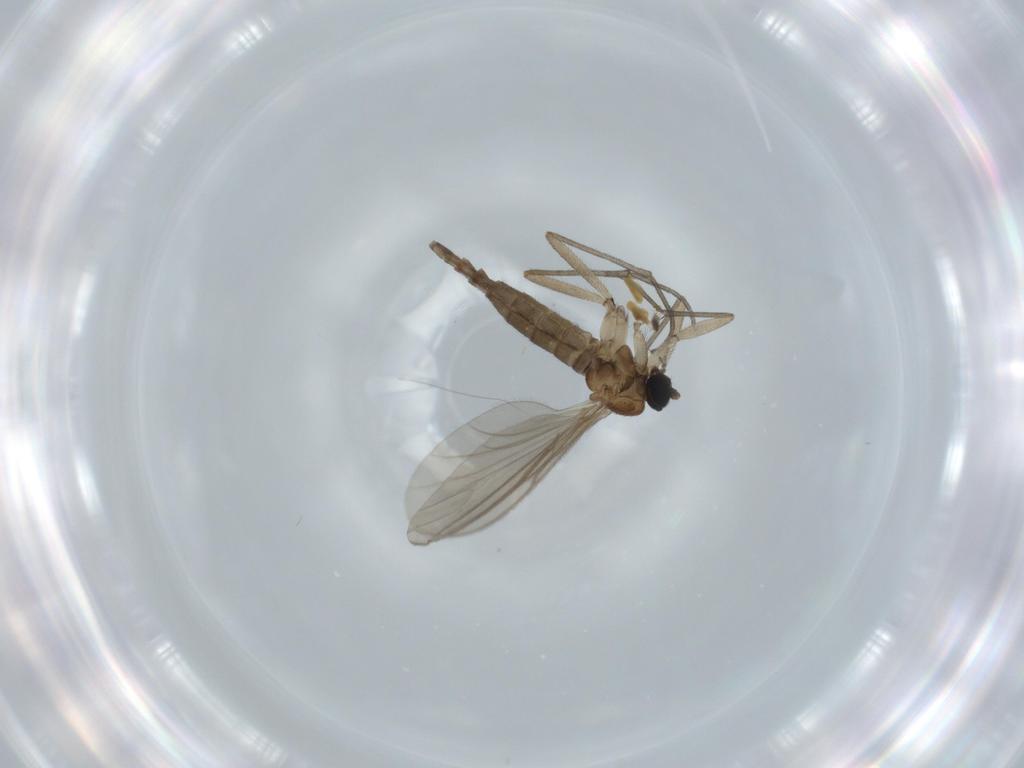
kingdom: Animalia
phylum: Arthropoda
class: Insecta
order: Diptera
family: Sciaridae
